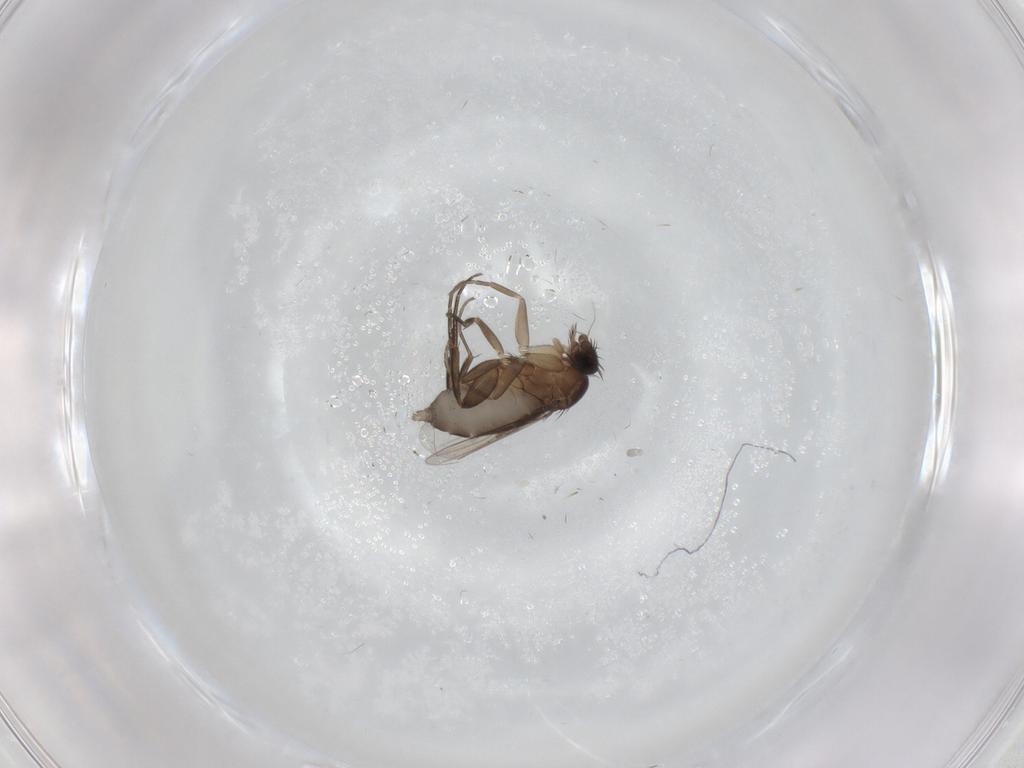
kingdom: Animalia
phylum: Arthropoda
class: Insecta
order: Diptera
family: Phoridae
